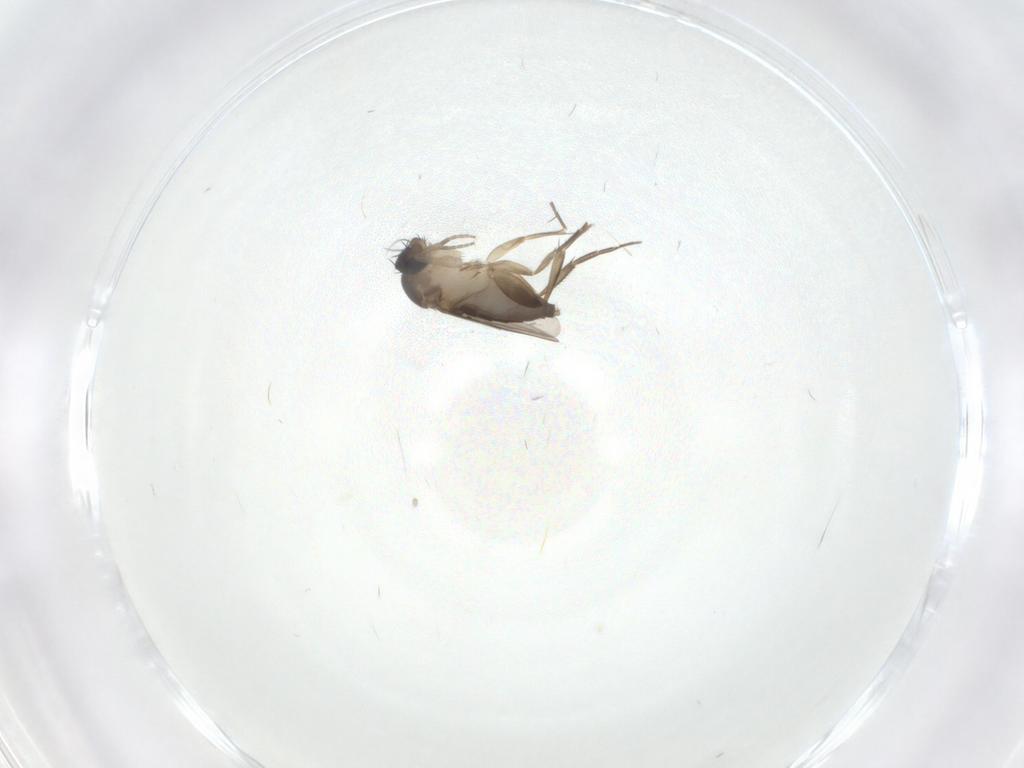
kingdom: Animalia
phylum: Arthropoda
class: Insecta
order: Diptera
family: Phoridae
